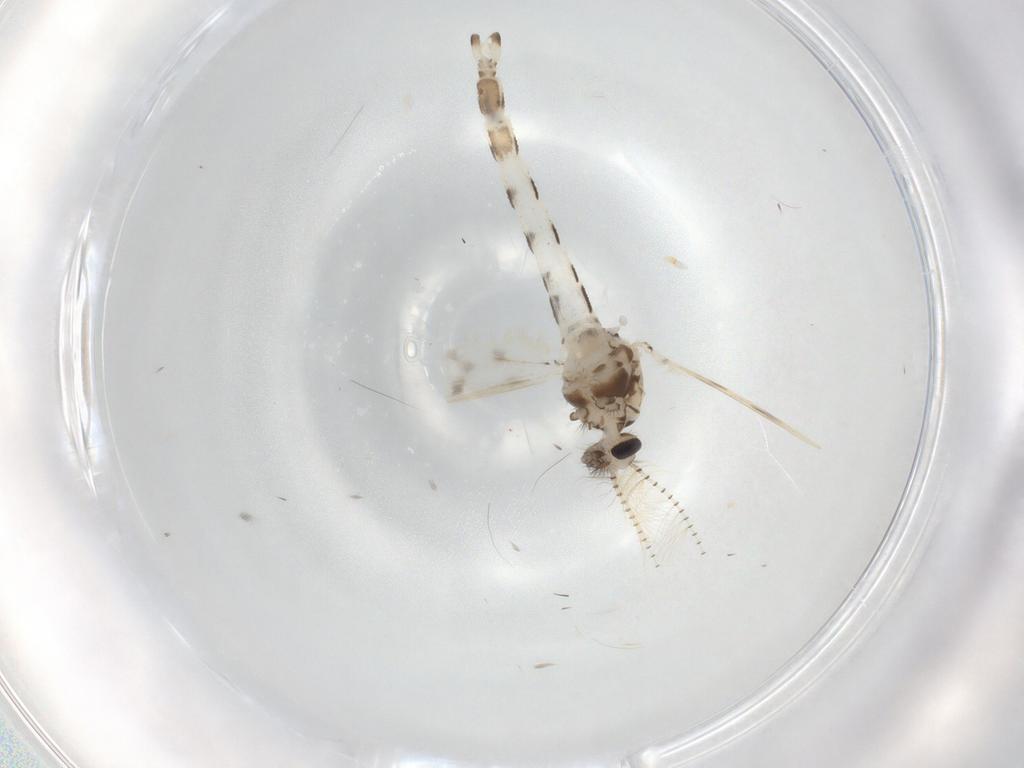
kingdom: Animalia
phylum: Arthropoda
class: Insecta
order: Diptera
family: Corethrellidae
